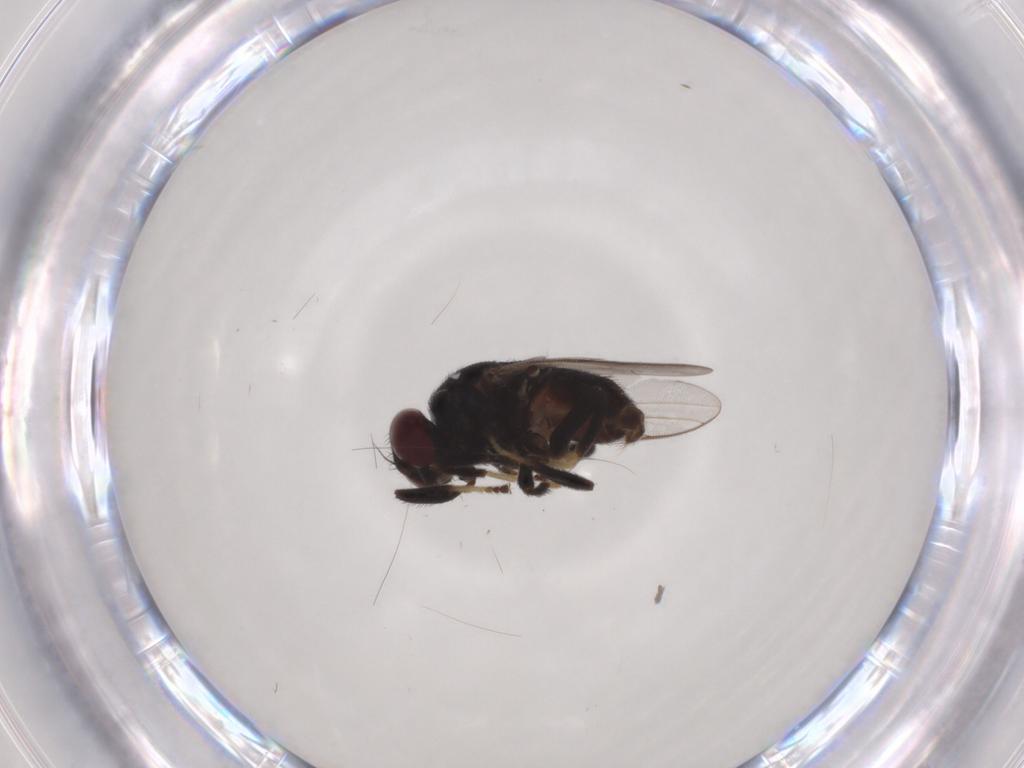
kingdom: Animalia
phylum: Arthropoda
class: Insecta
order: Diptera
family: Chloropidae
